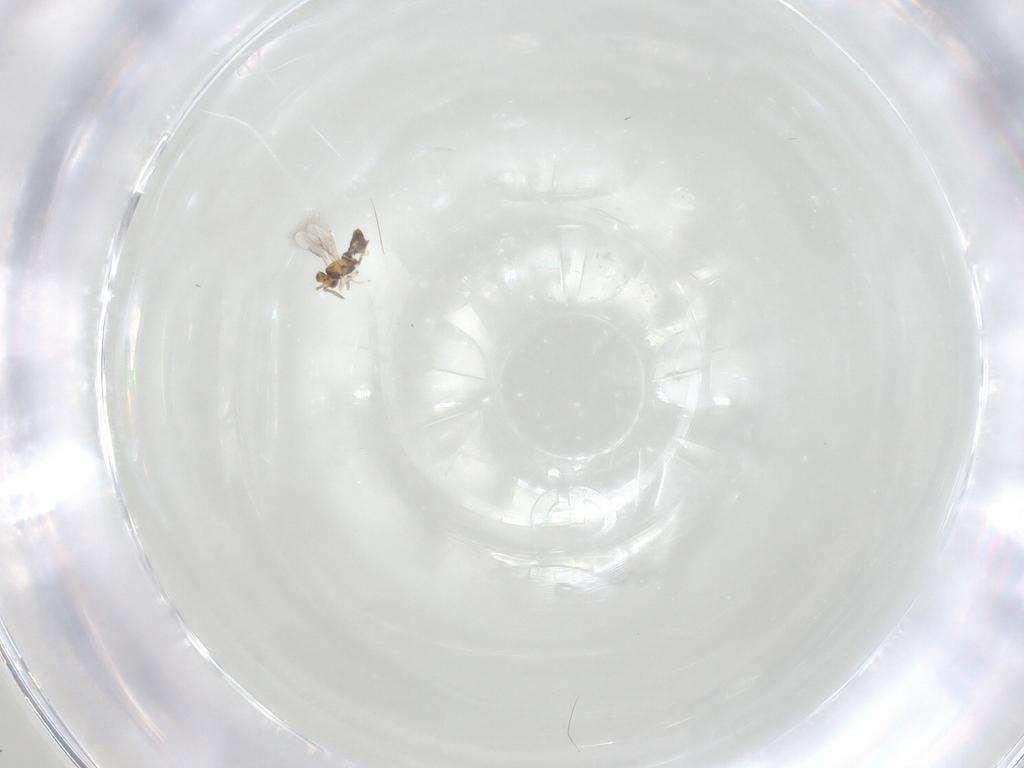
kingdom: Animalia
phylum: Arthropoda
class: Insecta
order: Hymenoptera
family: Aphelinidae
